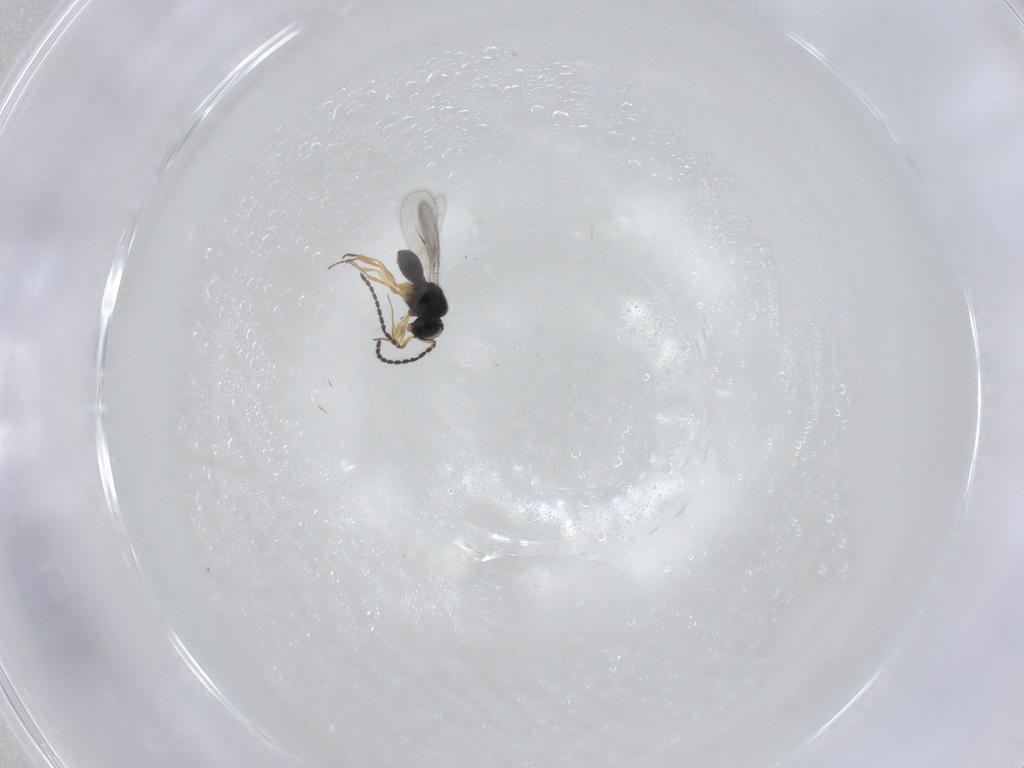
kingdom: Animalia
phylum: Arthropoda
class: Insecta
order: Hymenoptera
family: Scelionidae
